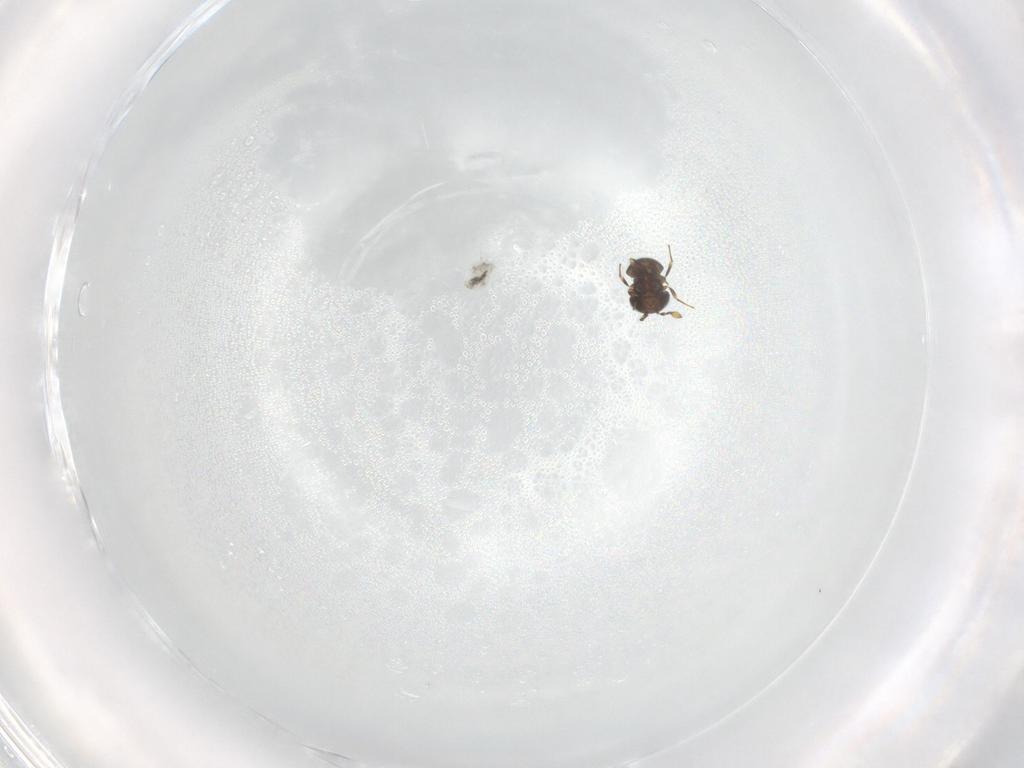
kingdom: Animalia
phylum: Arthropoda
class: Insecta
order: Hymenoptera
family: Scelionidae
